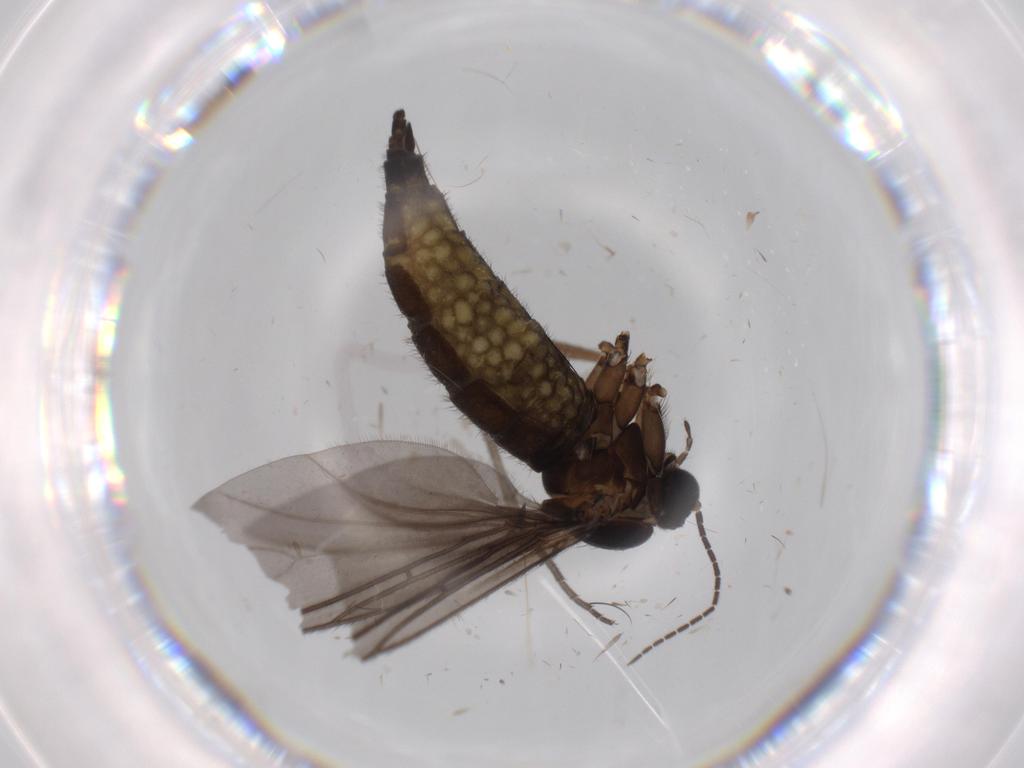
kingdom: Animalia
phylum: Arthropoda
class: Insecta
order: Diptera
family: Sciaridae
